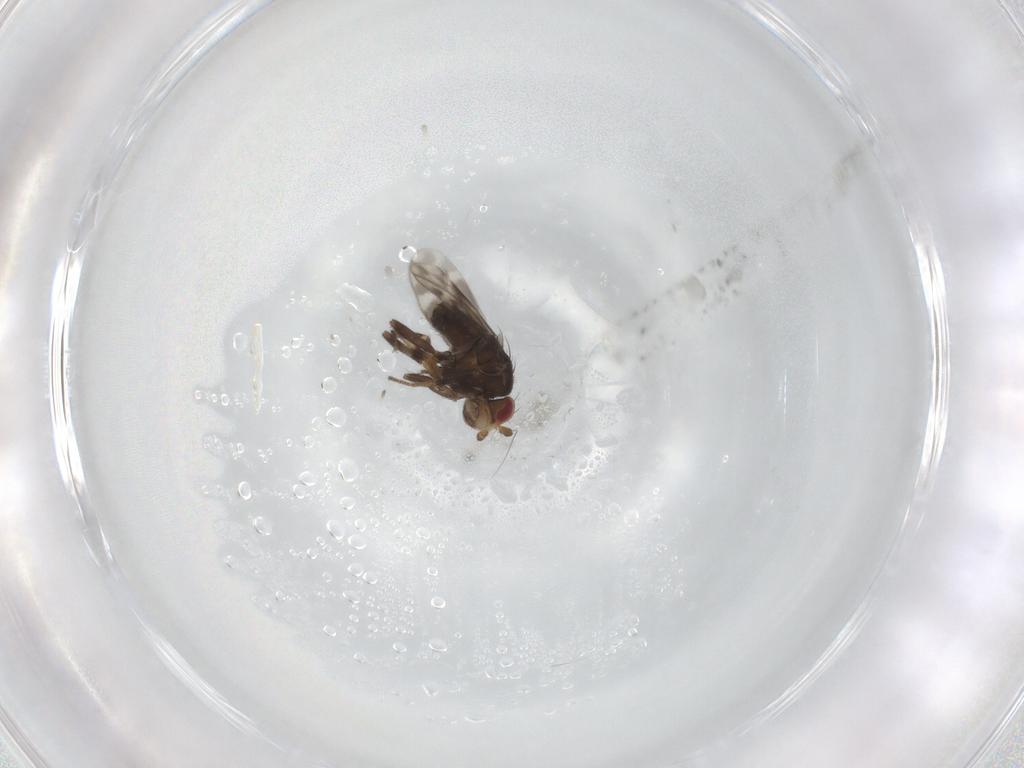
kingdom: Animalia
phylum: Arthropoda
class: Insecta
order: Diptera
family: Sphaeroceridae
